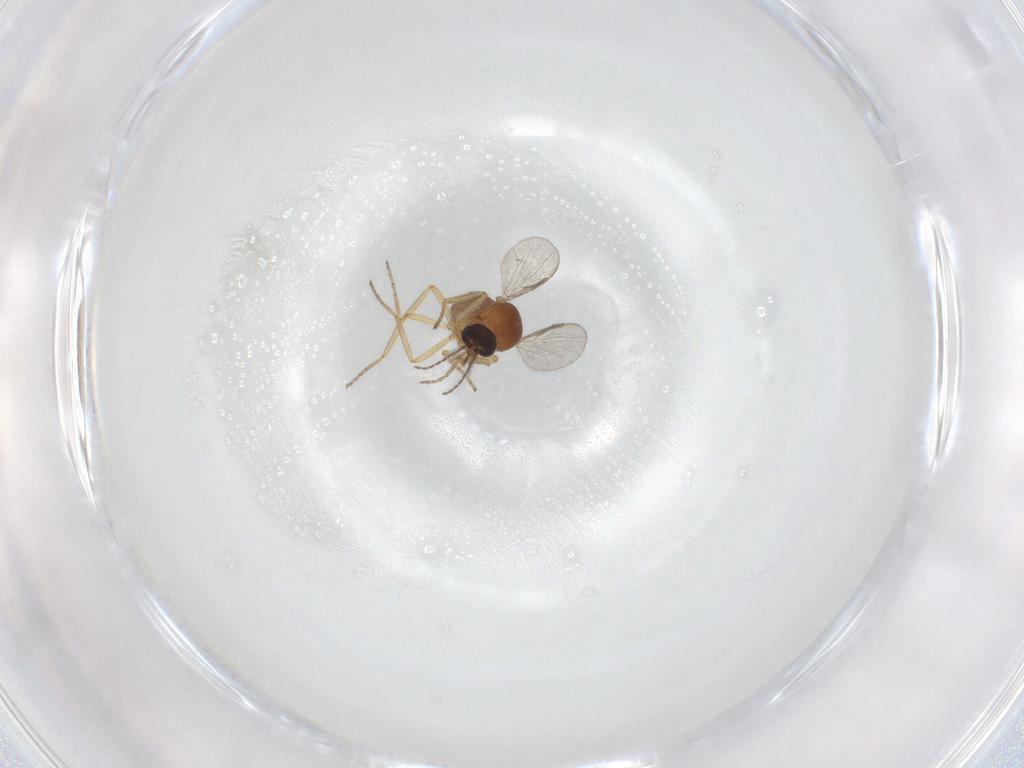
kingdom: Animalia
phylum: Arthropoda
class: Insecta
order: Diptera
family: Ceratopogonidae
